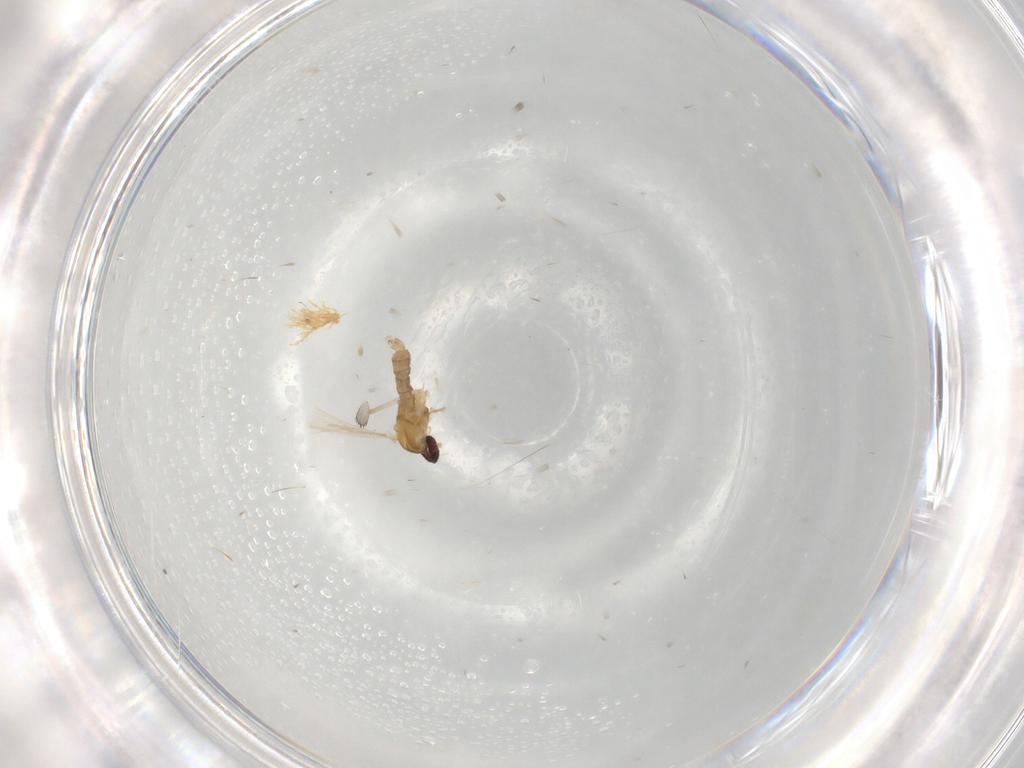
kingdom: Animalia
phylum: Arthropoda
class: Insecta
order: Diptera
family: Cecidomyiidae
